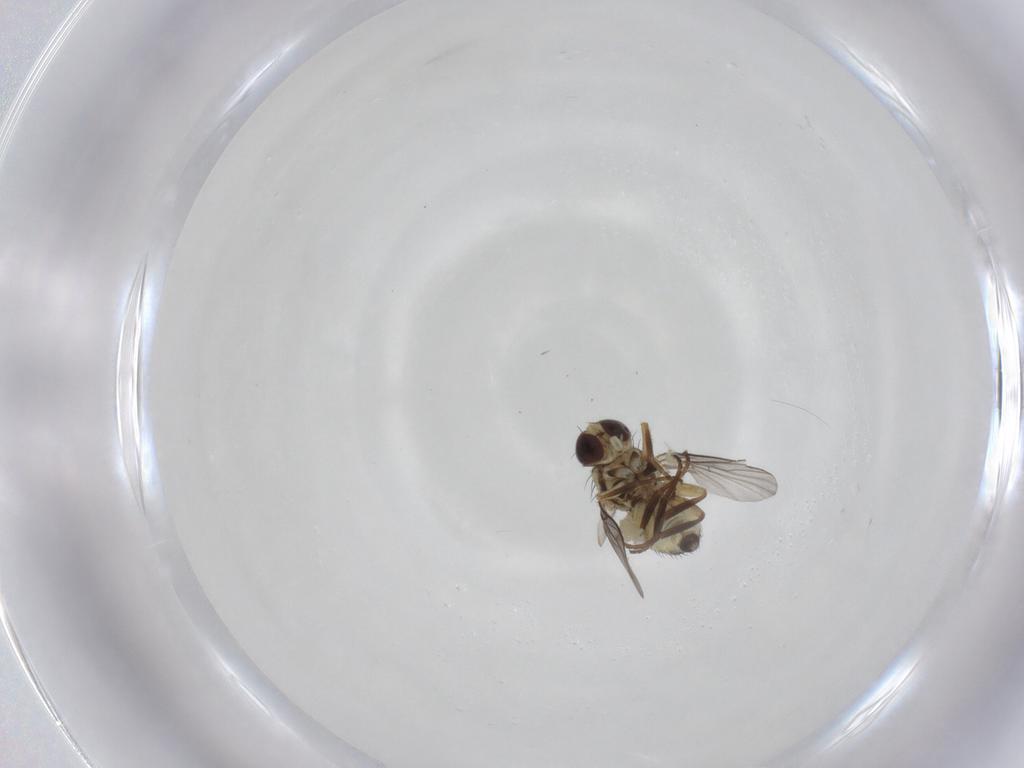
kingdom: Animalia
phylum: Arthropoda
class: Insecta
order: Diptera
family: Agromyzidae
